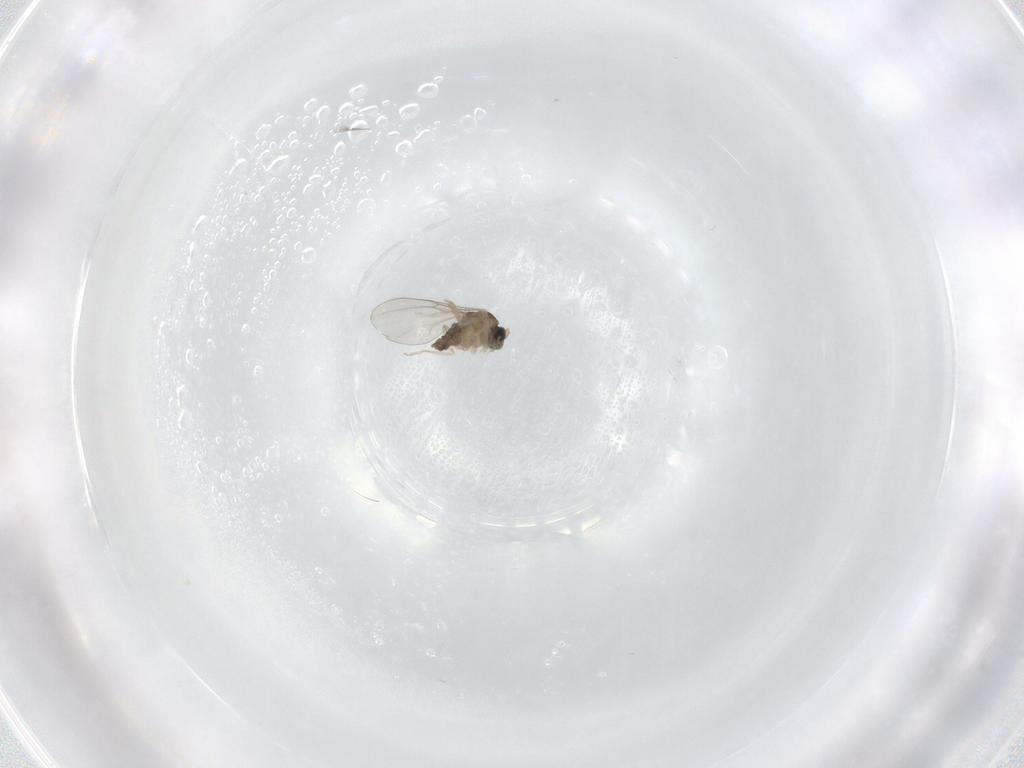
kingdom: Animalia
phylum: Arthropoda
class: Insecta
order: Diptera
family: Cecidomyiidae
